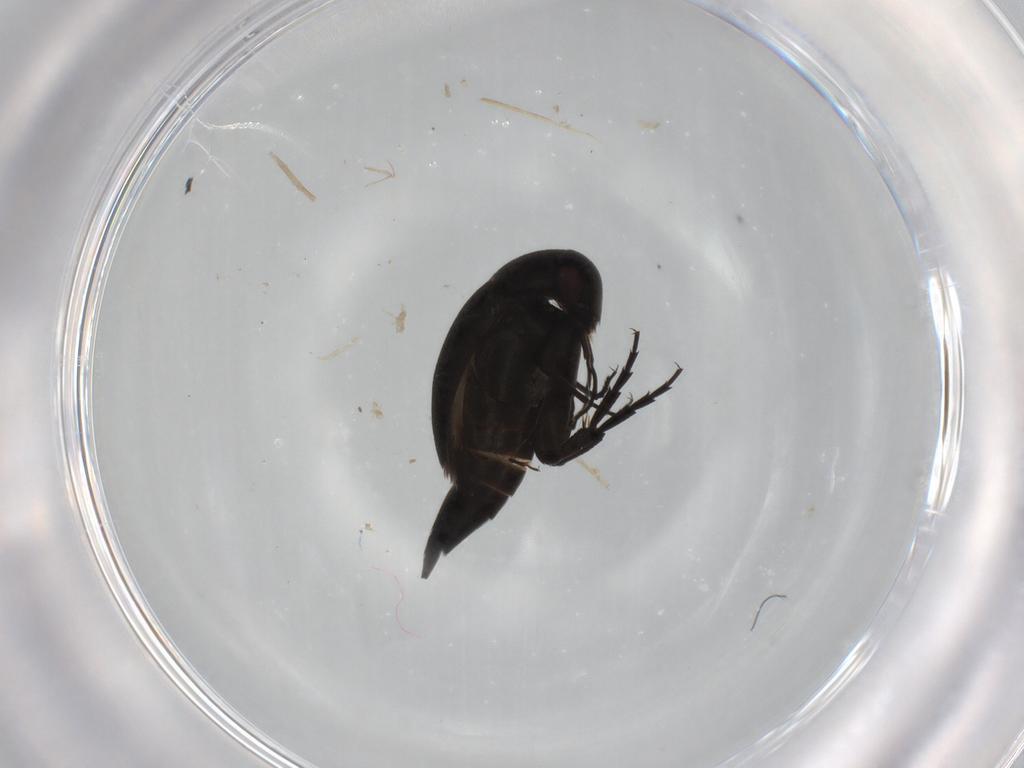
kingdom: Animalia
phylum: Arthropoda
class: Insecta
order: Coleoptera
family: Mordellidae
